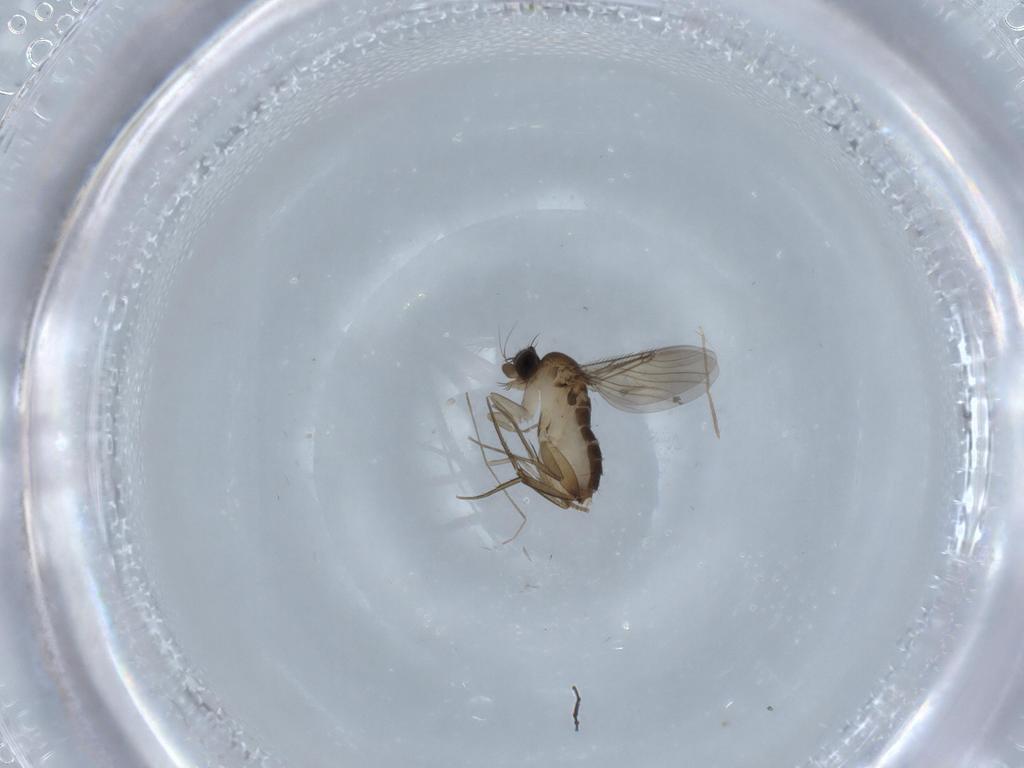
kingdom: Animalia
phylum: Arthropoda
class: Insecta
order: Diptera
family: Phoridae
